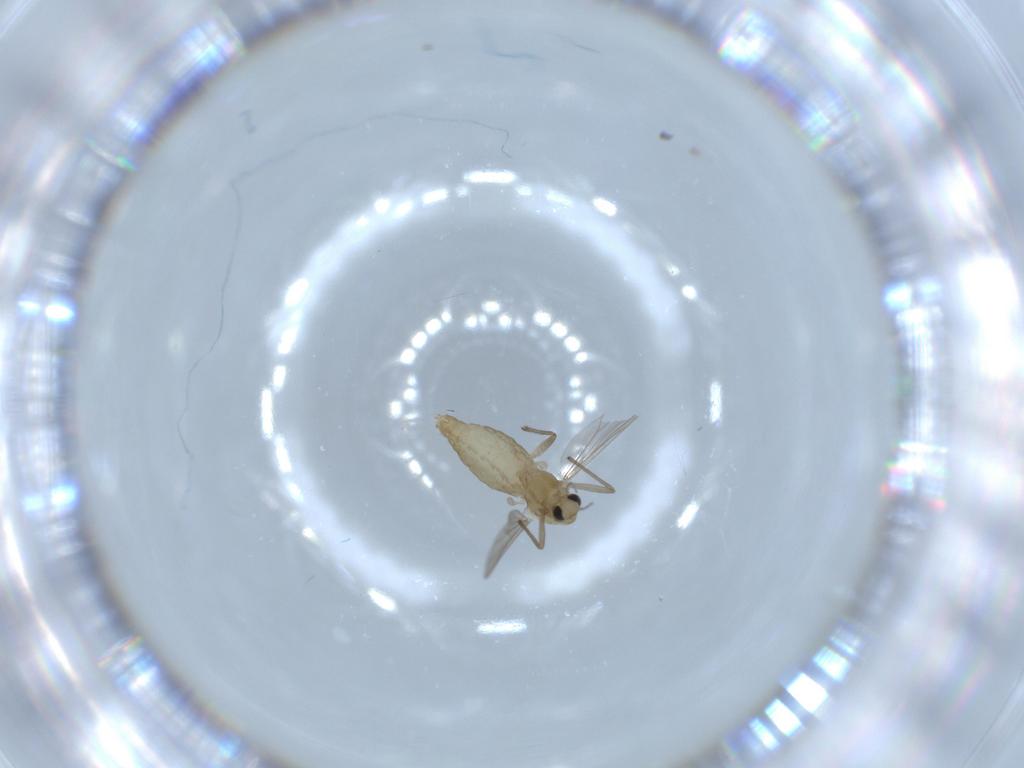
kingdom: Animalia
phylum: Arthropoda
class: Insecta
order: Diptera
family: Chironomidae
